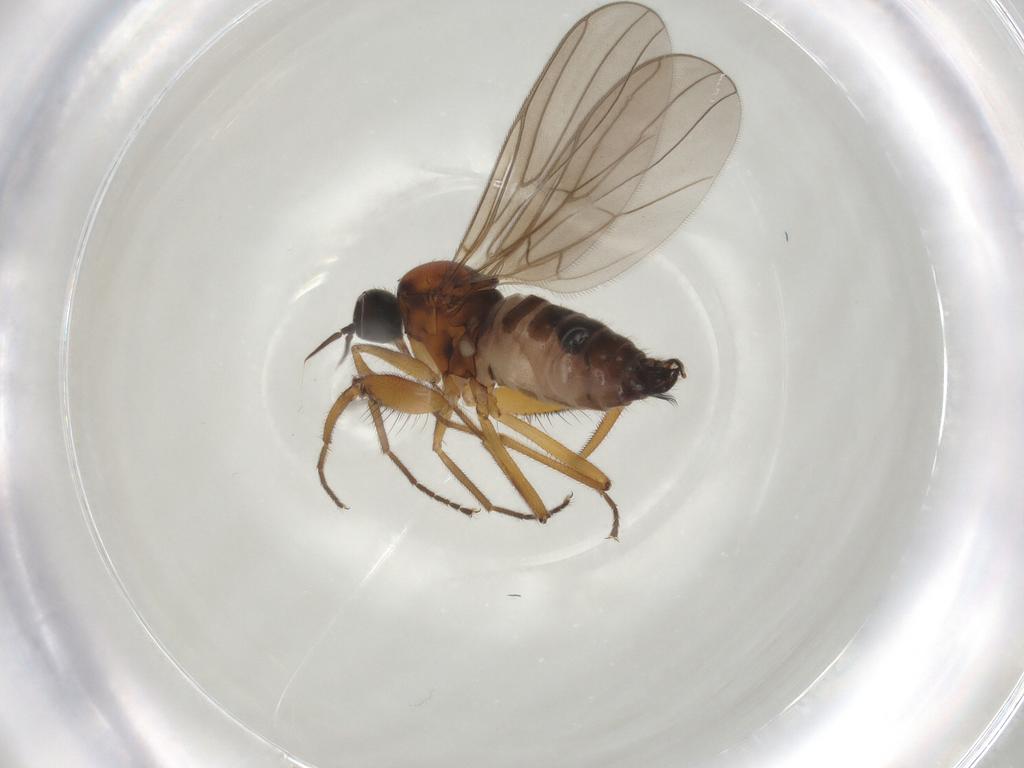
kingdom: Animalia
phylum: Arthropoda
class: Insecta
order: Diptera
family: Hybotidae
